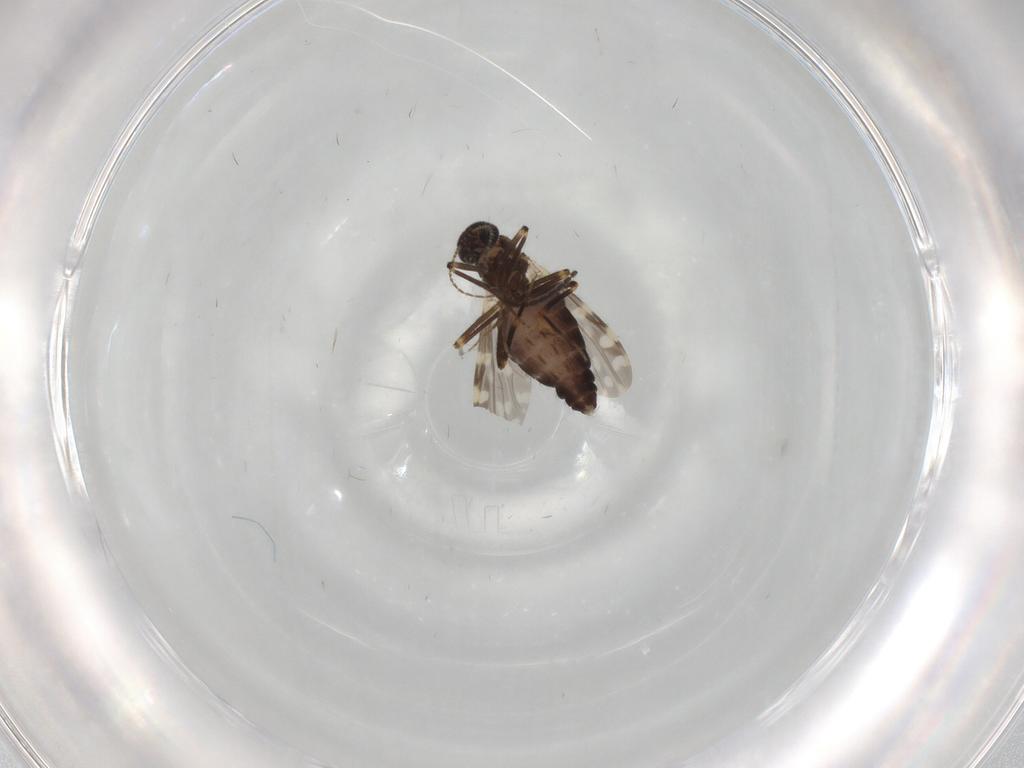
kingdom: Animalia
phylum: Arthropoda
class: Insecta
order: Diptera
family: Ceratopogonidae
